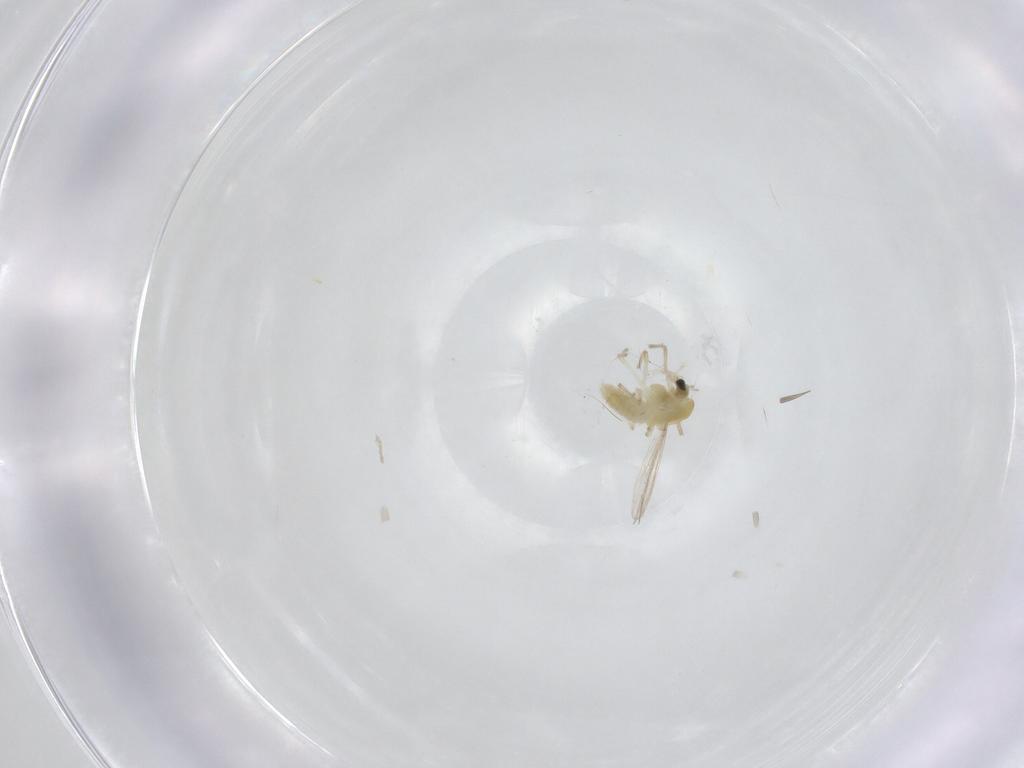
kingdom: Animalia
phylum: Arthropoda
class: Insecta
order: Diptera
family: Chironomidae
